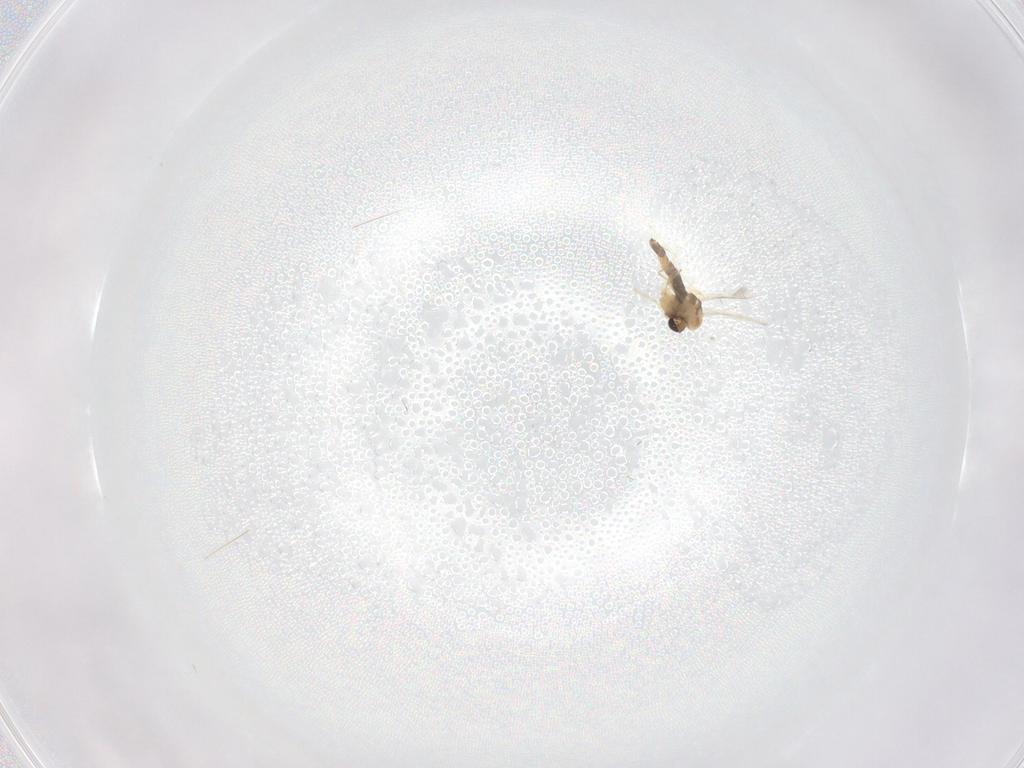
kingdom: Animalia
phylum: Arthropoda
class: Insecta
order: Diptera
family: Chironomidae
